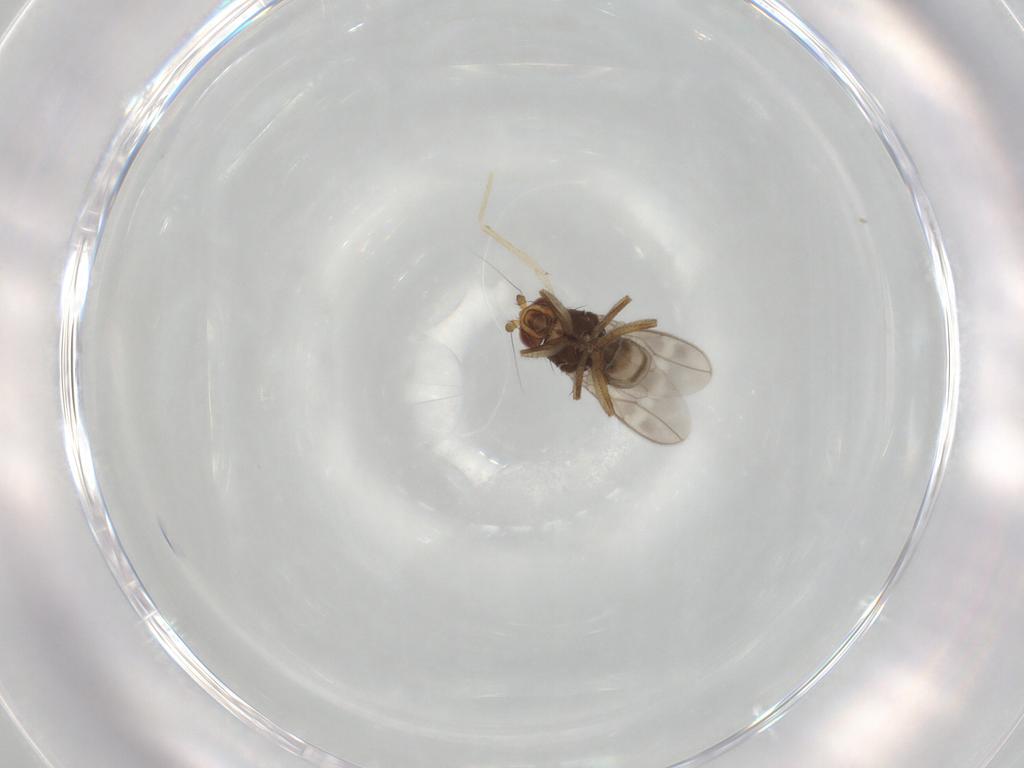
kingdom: Animalia
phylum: Arthropoda
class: Insecta
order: Diptera
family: Sphaeroceridae
